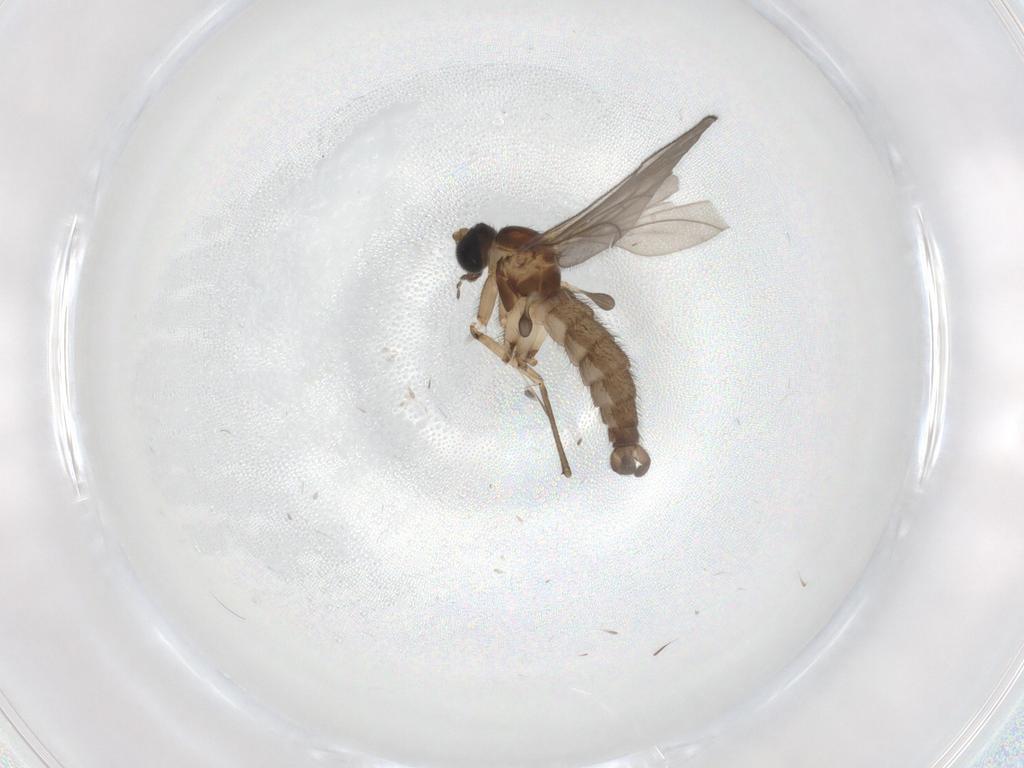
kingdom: Animalia
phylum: Arthropoda
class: Insecta
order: Diptera
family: Sciaridae
